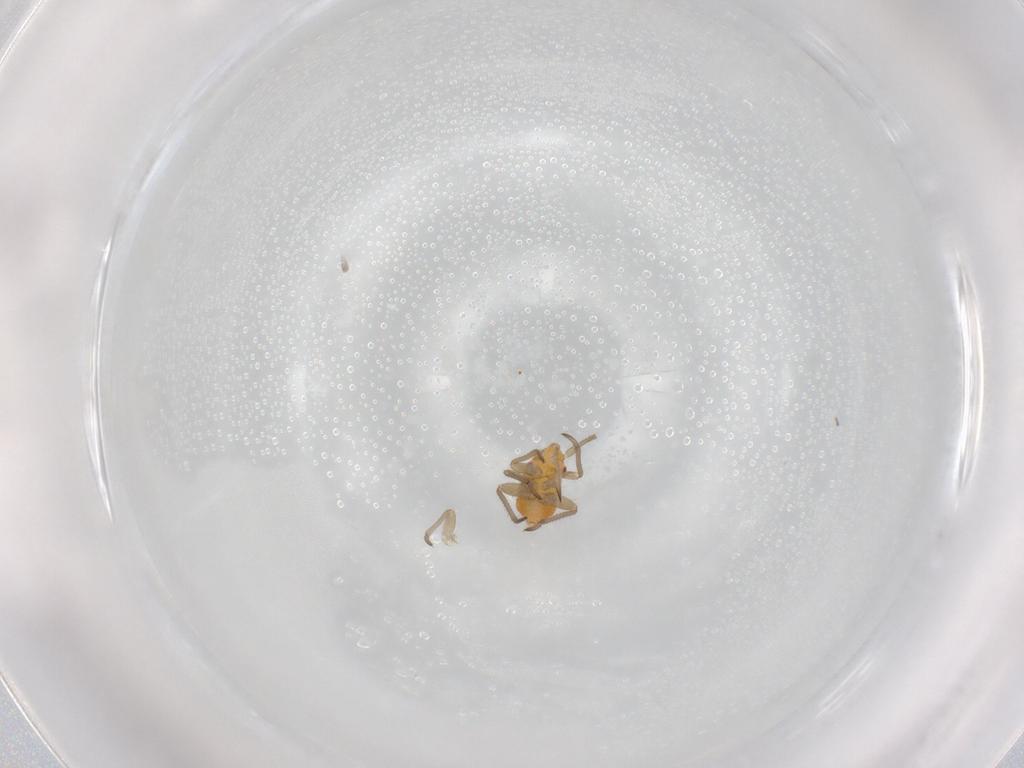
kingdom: Animalia
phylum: Arthropoda
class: Insecta
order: Hemiptera
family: Miridae
